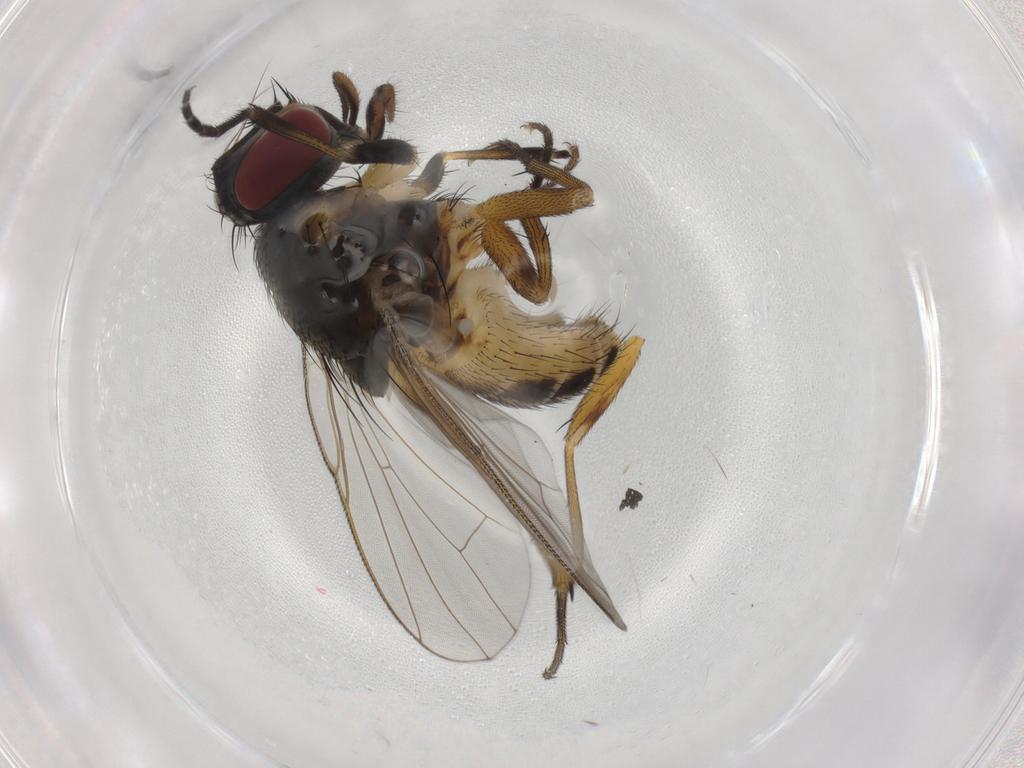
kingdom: Animalia
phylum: Arthropoda
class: Insecta
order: Diptera
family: Muscidae
